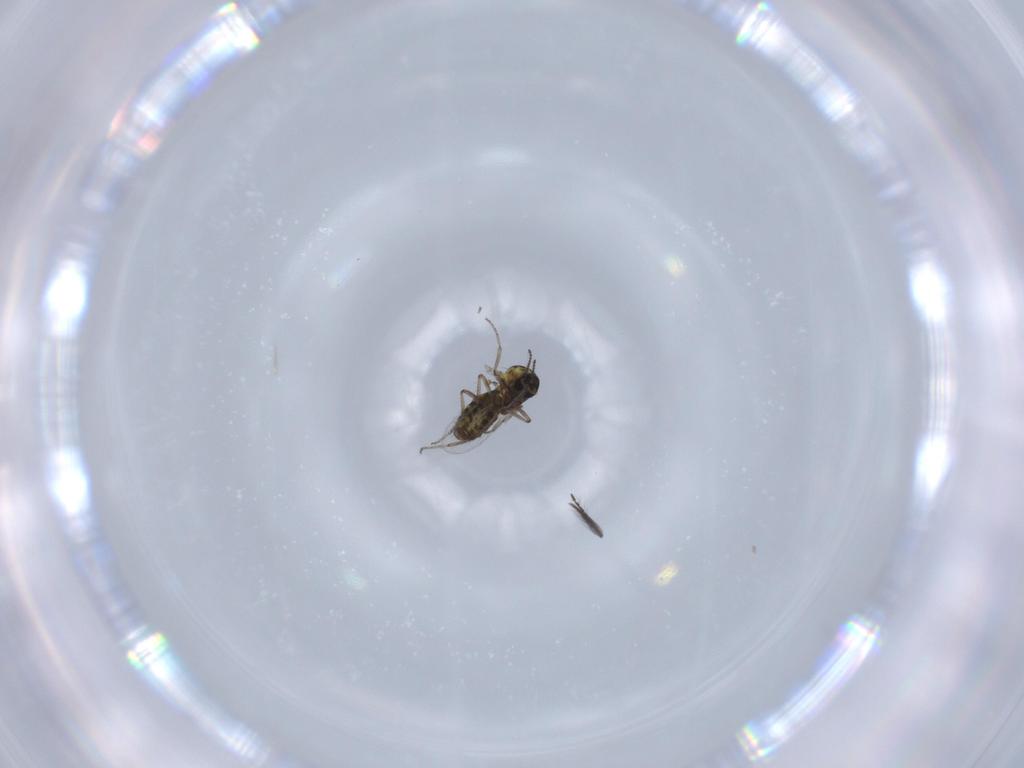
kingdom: Animalia
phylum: Arthropoda
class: Insecta
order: Diptera
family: Ceratopogonidae
